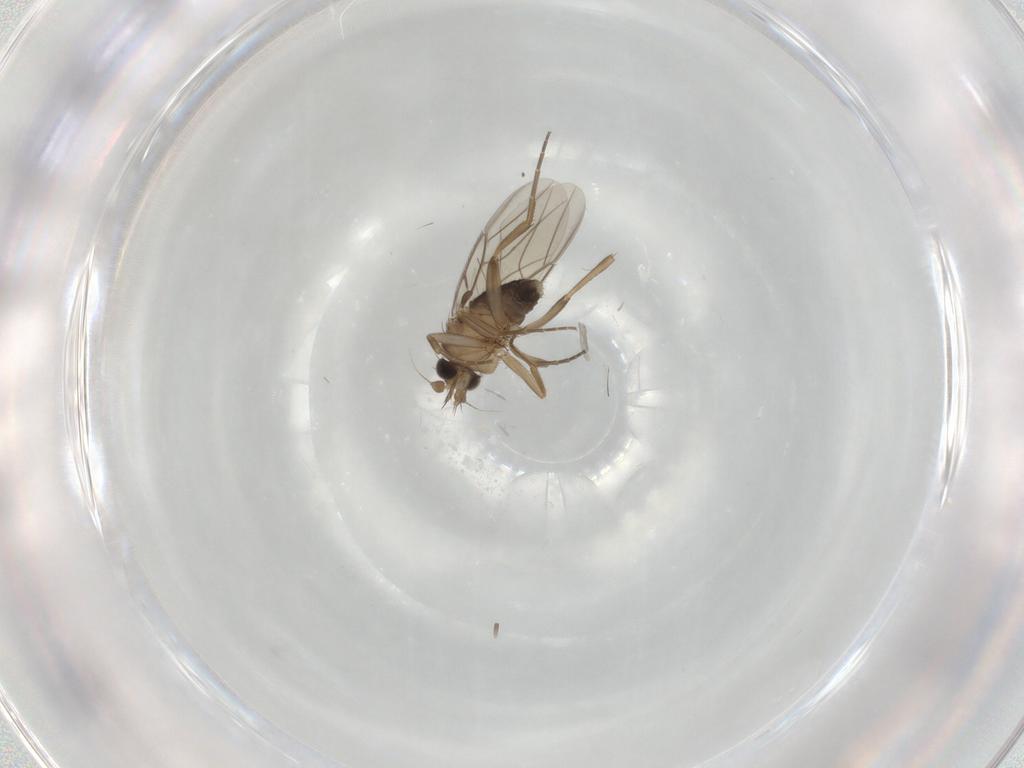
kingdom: Animalia
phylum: Arthropoda
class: Insecta
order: Diptera
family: Phoridae
